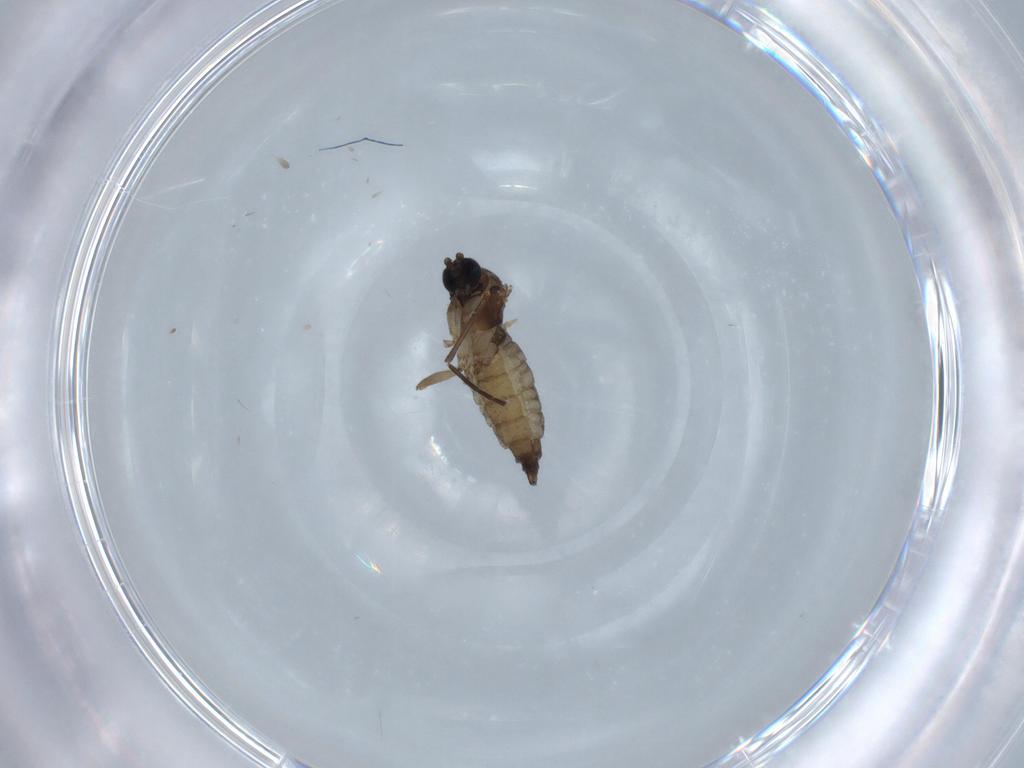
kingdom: Animalia
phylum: Arthropoda
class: Insecta
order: Diptera
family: Sciaridae
